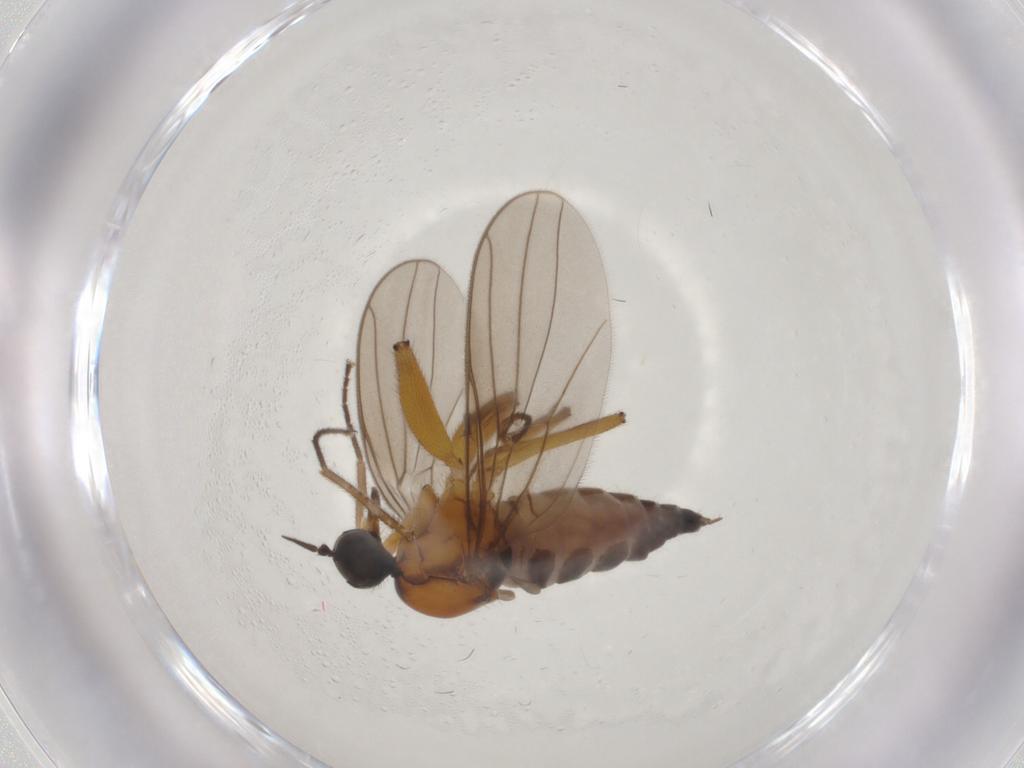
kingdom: Animalia
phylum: Arthropoda
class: Insecta
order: Diptera
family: Hybotidae
